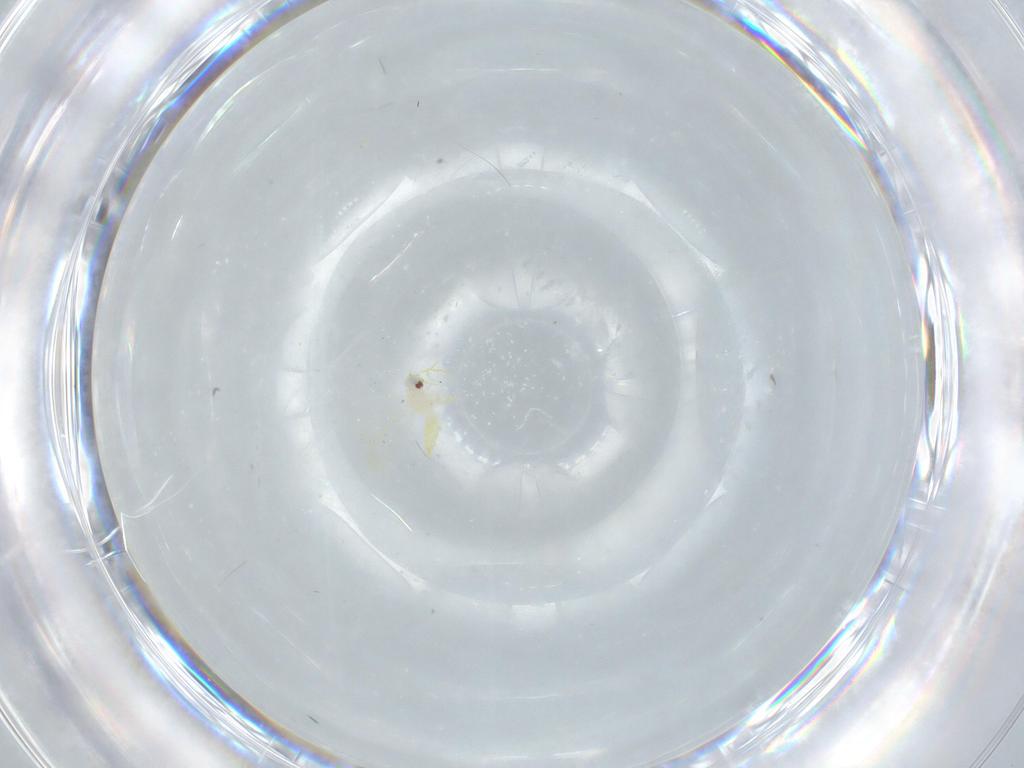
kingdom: Animalia
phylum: Arthropoda
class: Insecta
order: Hemiptera
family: Aleyrodidae
